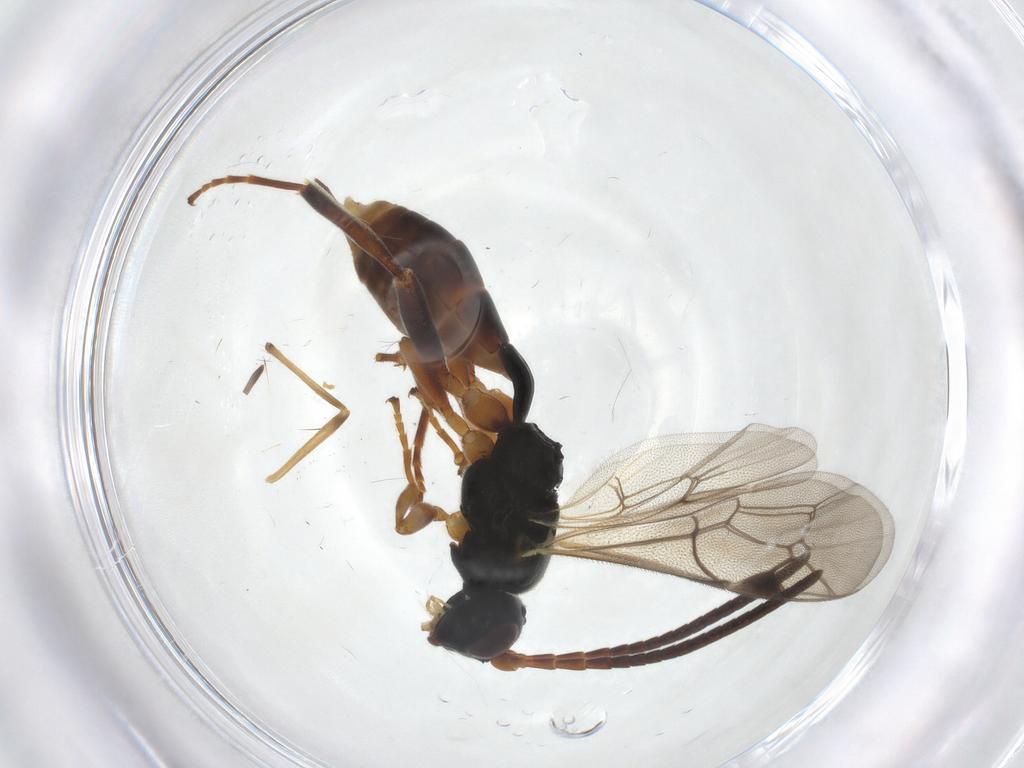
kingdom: Animalia
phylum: Arthropoda
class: Insecta
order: Hymenoptera
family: Ichneumonidae
